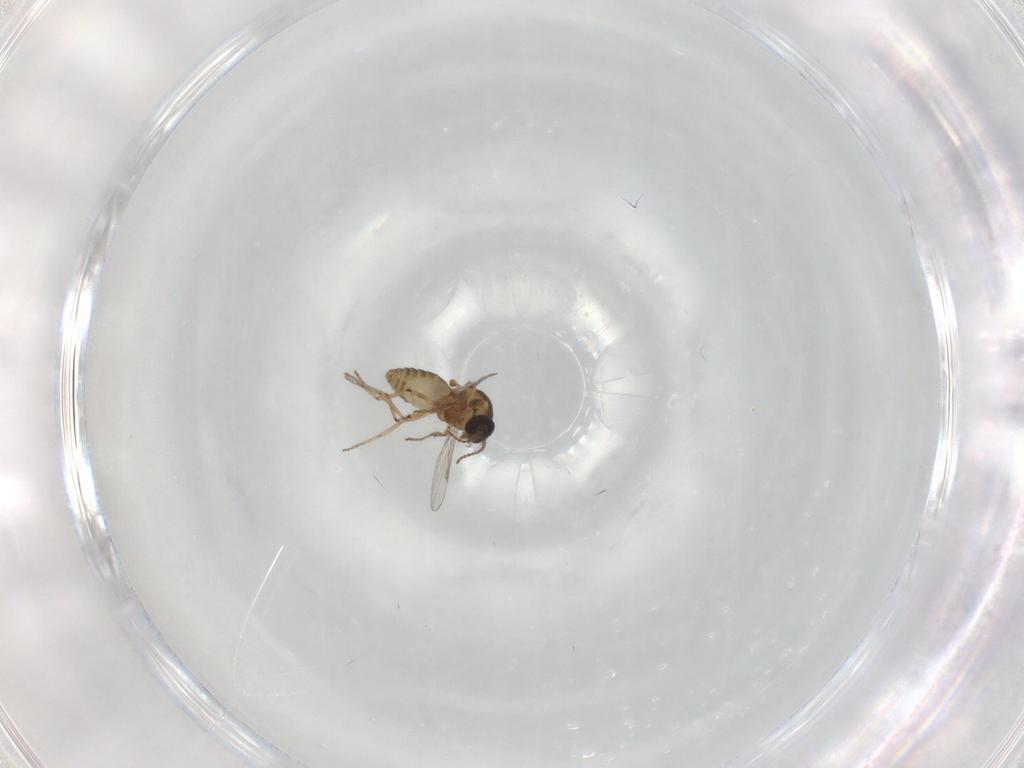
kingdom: Animalia
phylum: Arthropoda
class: Insecta
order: Diptera
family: Ceratopogonidae
